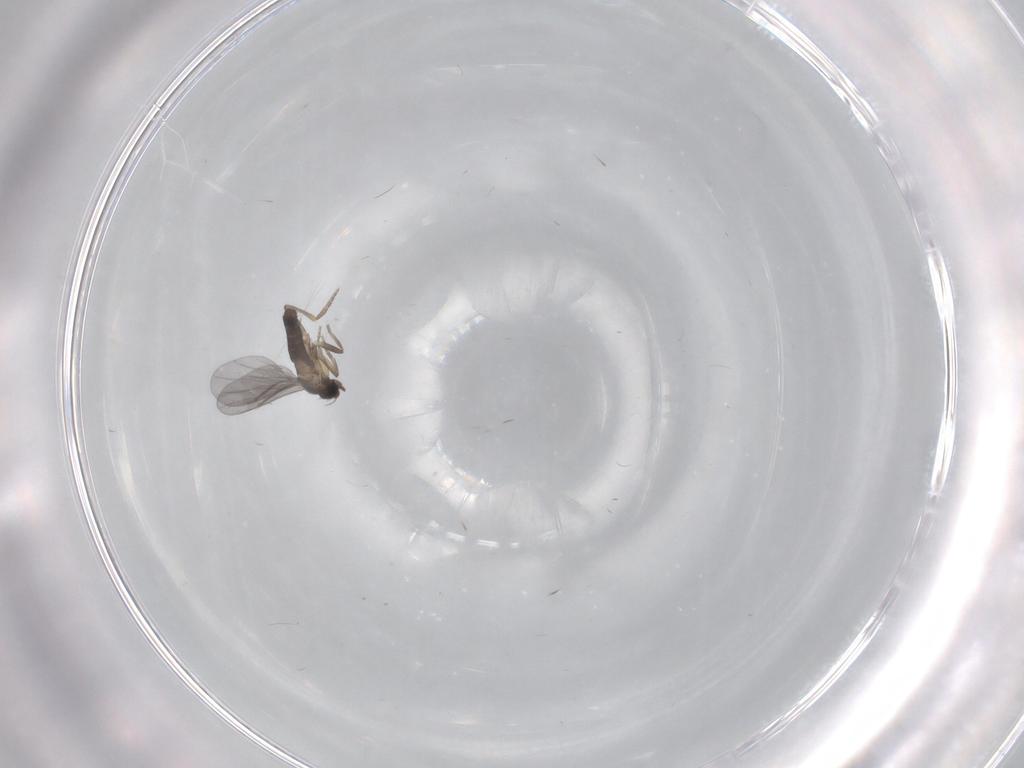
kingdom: Animalia
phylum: Arthropoda
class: Insecta
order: Diptera
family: Phoridae
